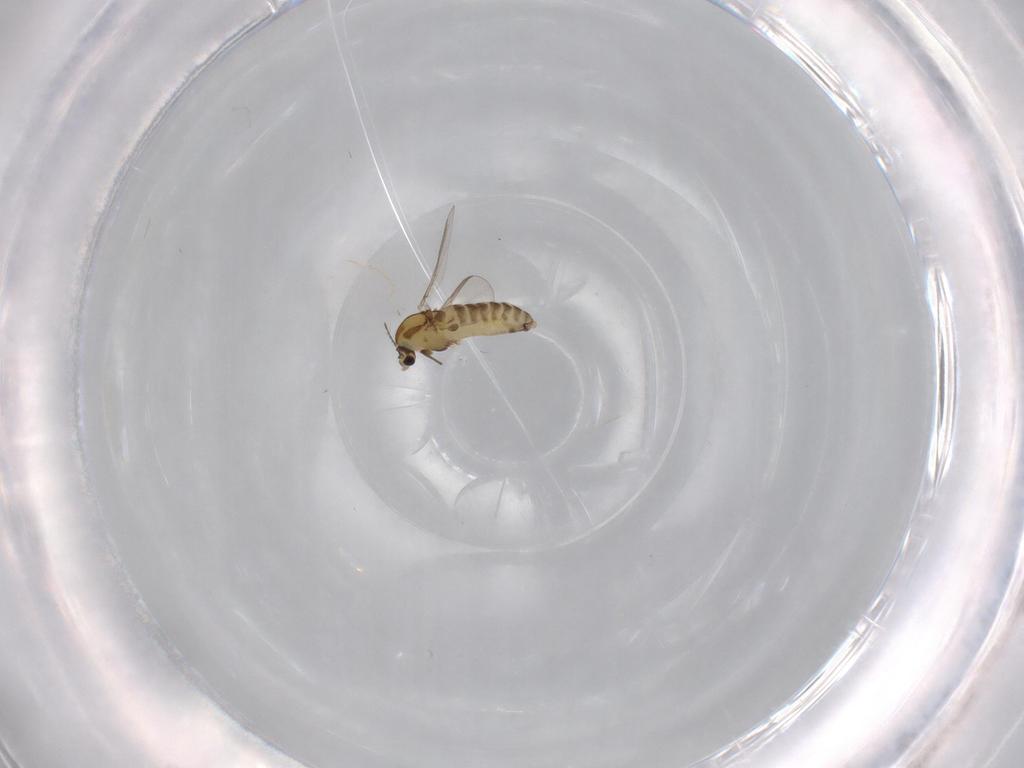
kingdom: Animalia
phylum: Arthropoda
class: Insecta
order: Diptera
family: Chironomidae
